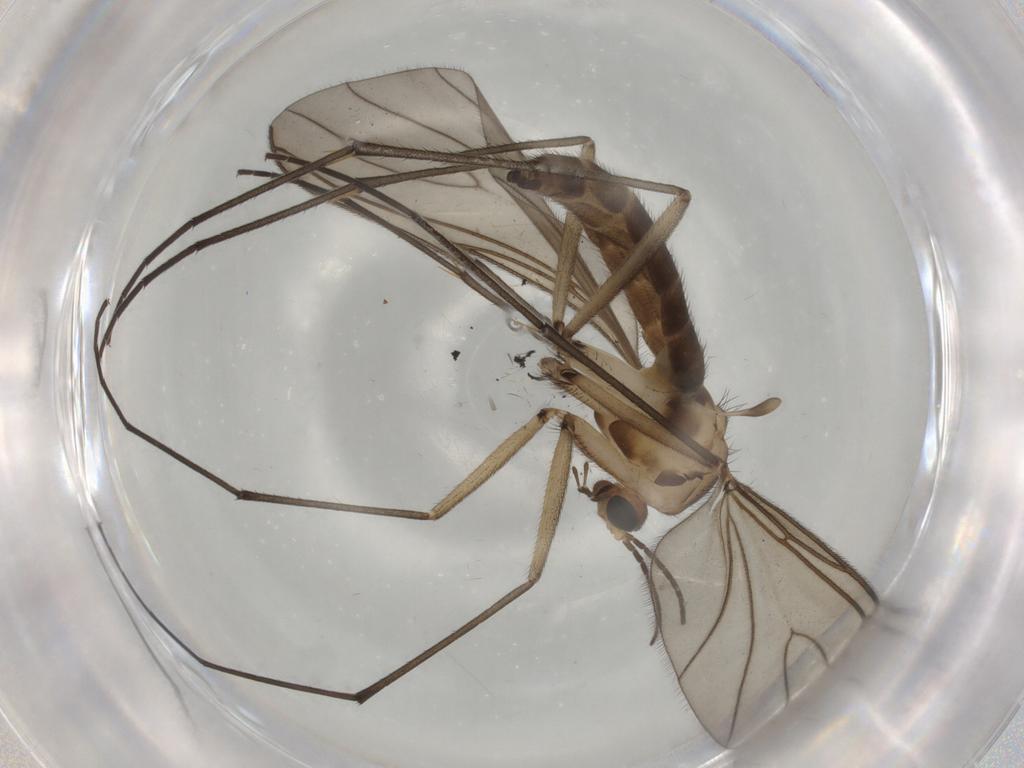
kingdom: Animalia
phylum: Arthropoda
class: Insecta
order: Diptera
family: Sciaridae
